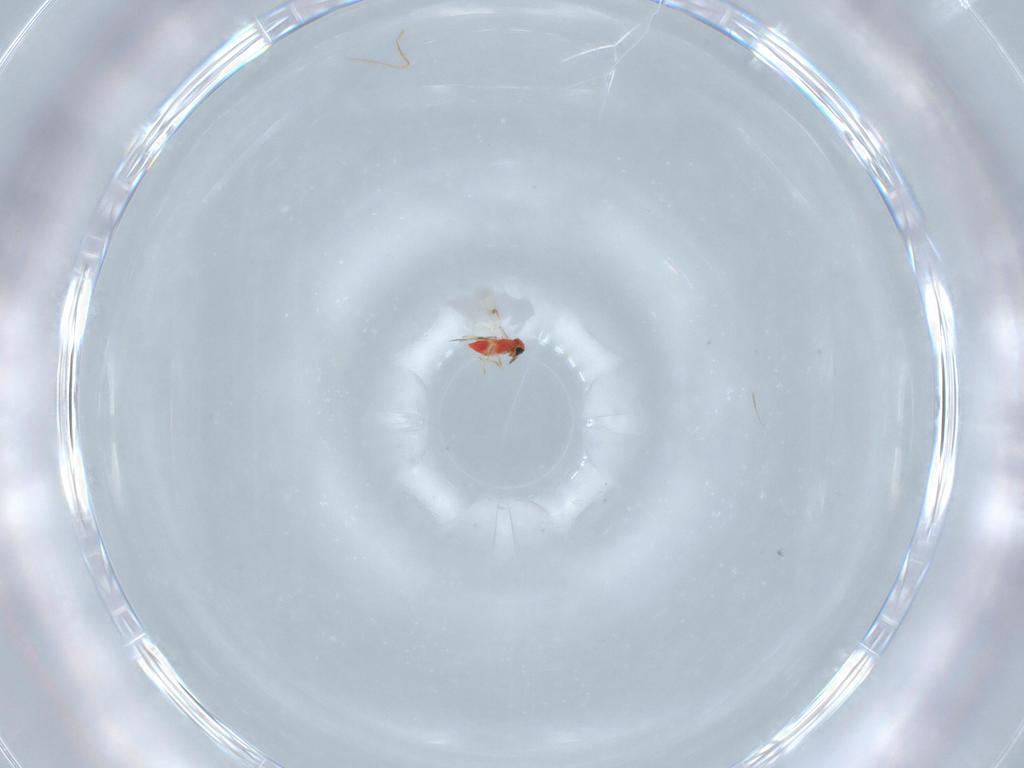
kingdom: Animalia
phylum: Arthropoda
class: Insecta
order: Hymenoptera
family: Mymaridae
